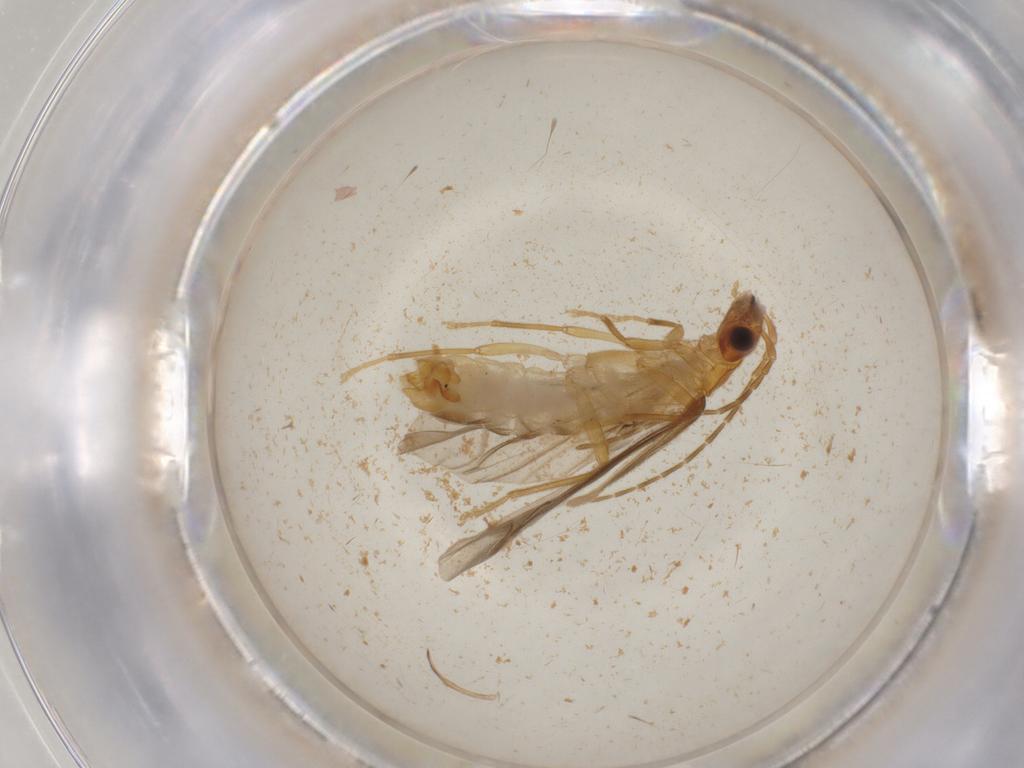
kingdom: Animalia
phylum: Arthropoda
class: Insecta
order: Coleoptera
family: Cantharidae
